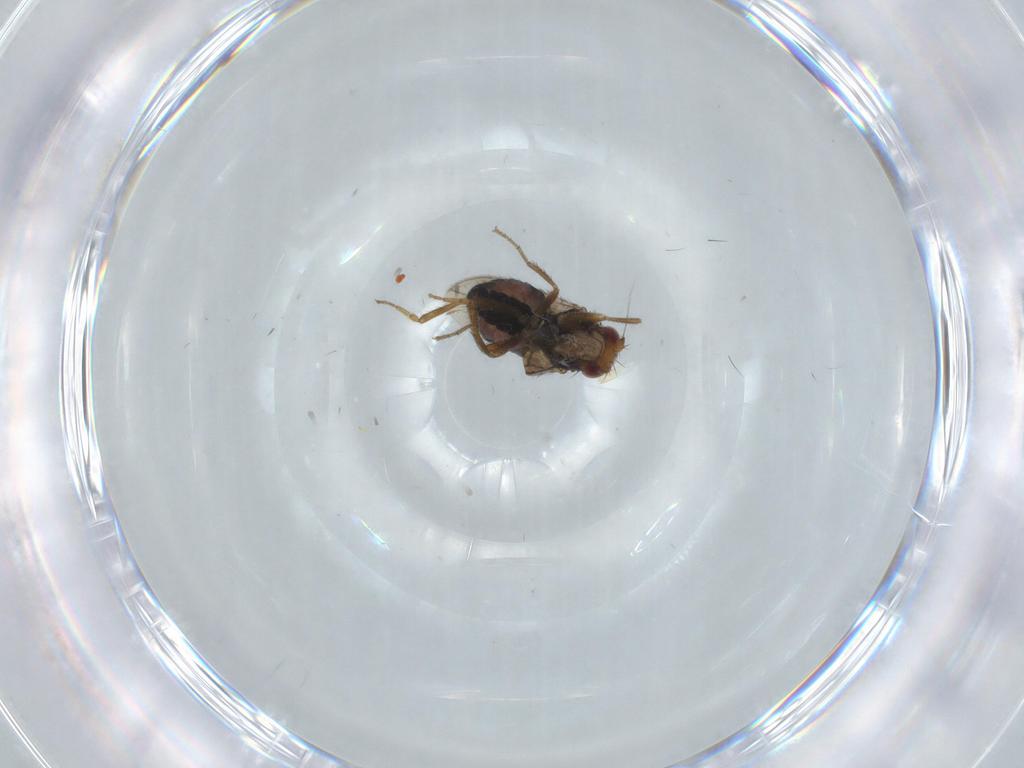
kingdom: Animalia
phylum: Arthropoda
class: Insecta
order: Diptera
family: Sphaeroceridae
